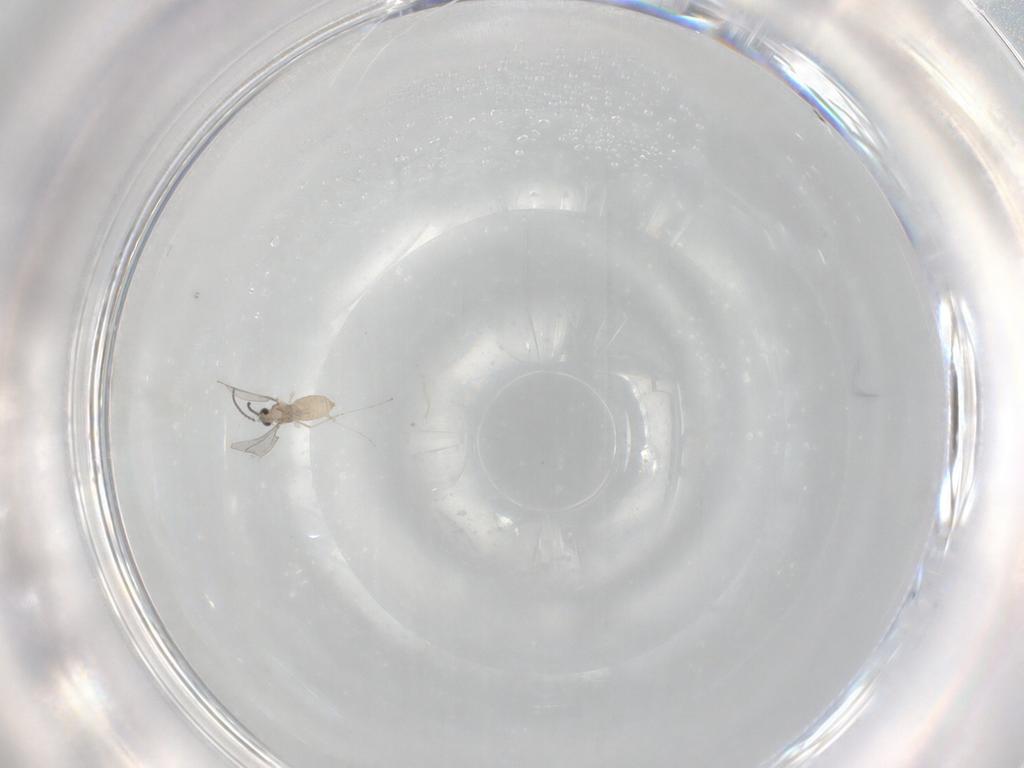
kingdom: Animalia
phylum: Arthropoda
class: Insecta
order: Diptera
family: Cecidomyiidae
